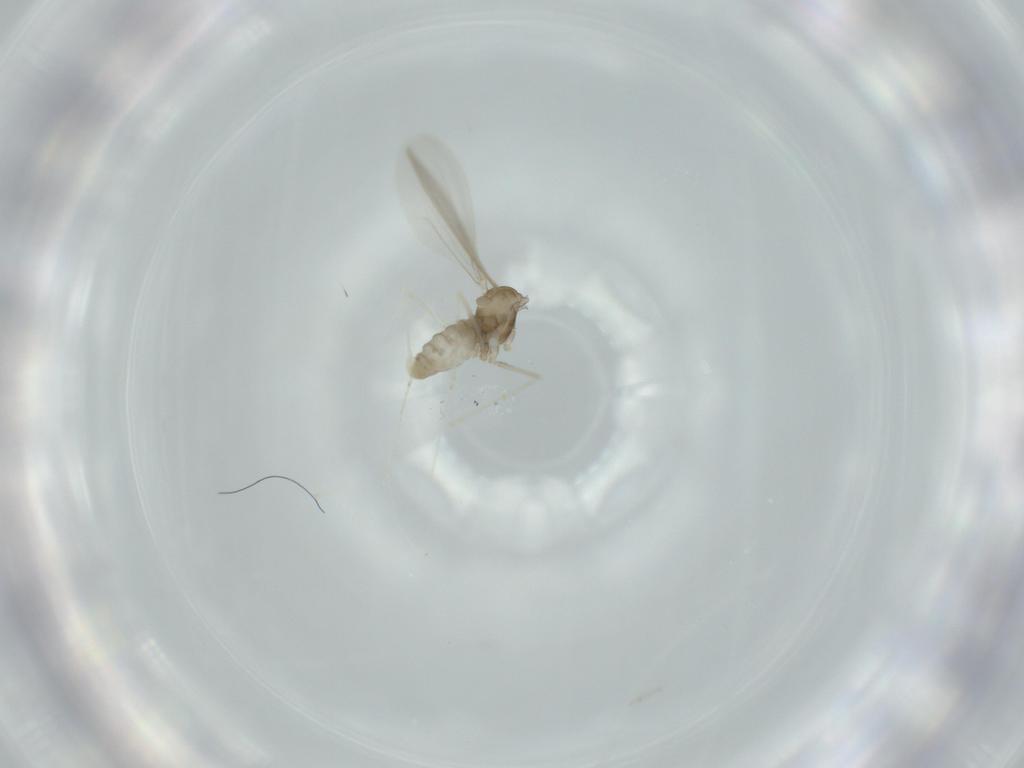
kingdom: Animalia
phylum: Arthropoda
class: Insecta
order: Diptera
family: Cecidomyiidae
